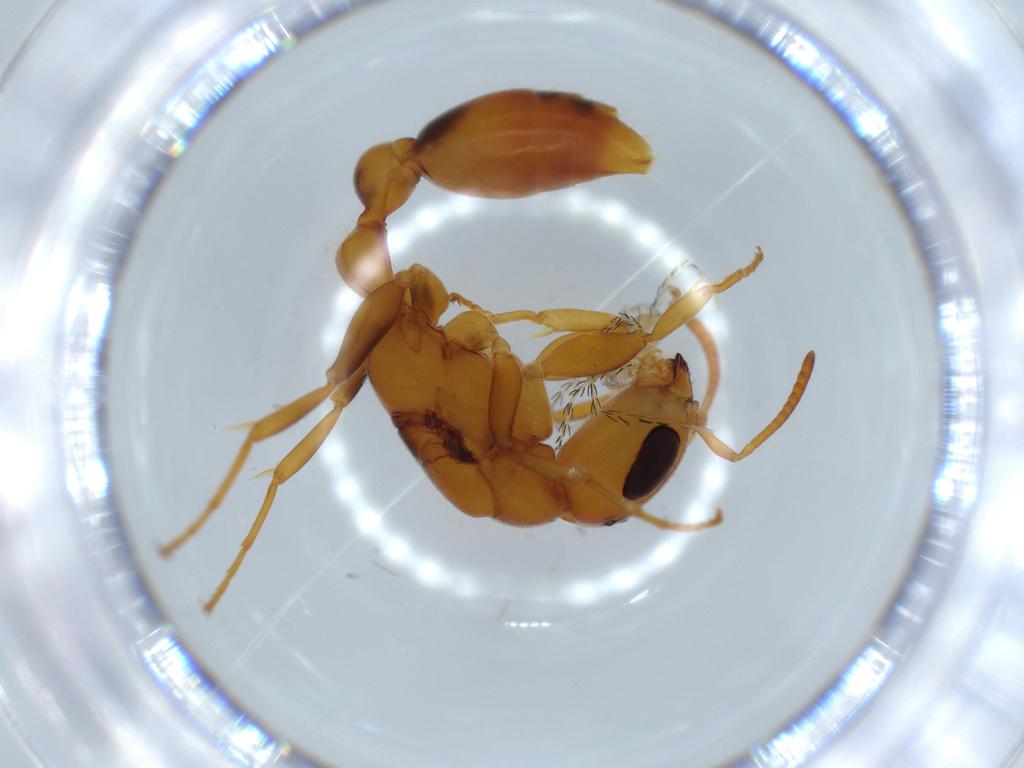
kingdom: Animalia
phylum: Arthropoda
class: Insecta
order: Hymenoptera
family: Formicidae
